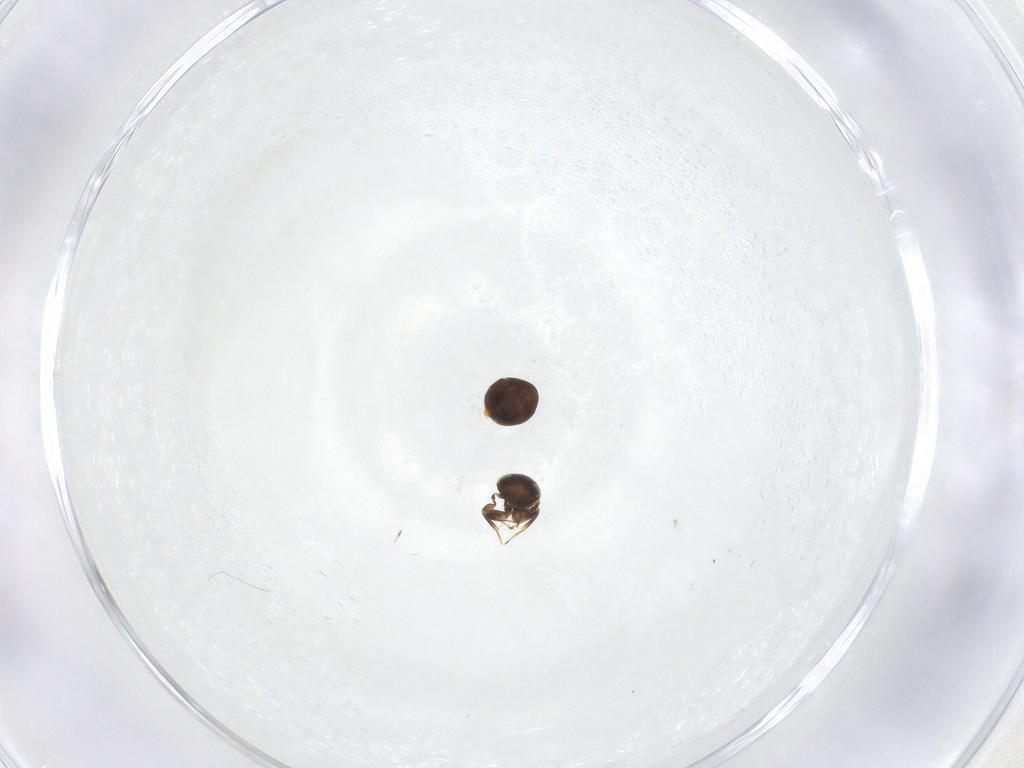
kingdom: Animalia
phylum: Arthropoda
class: Insecta
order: Hymenoptera
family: Scelionidae
